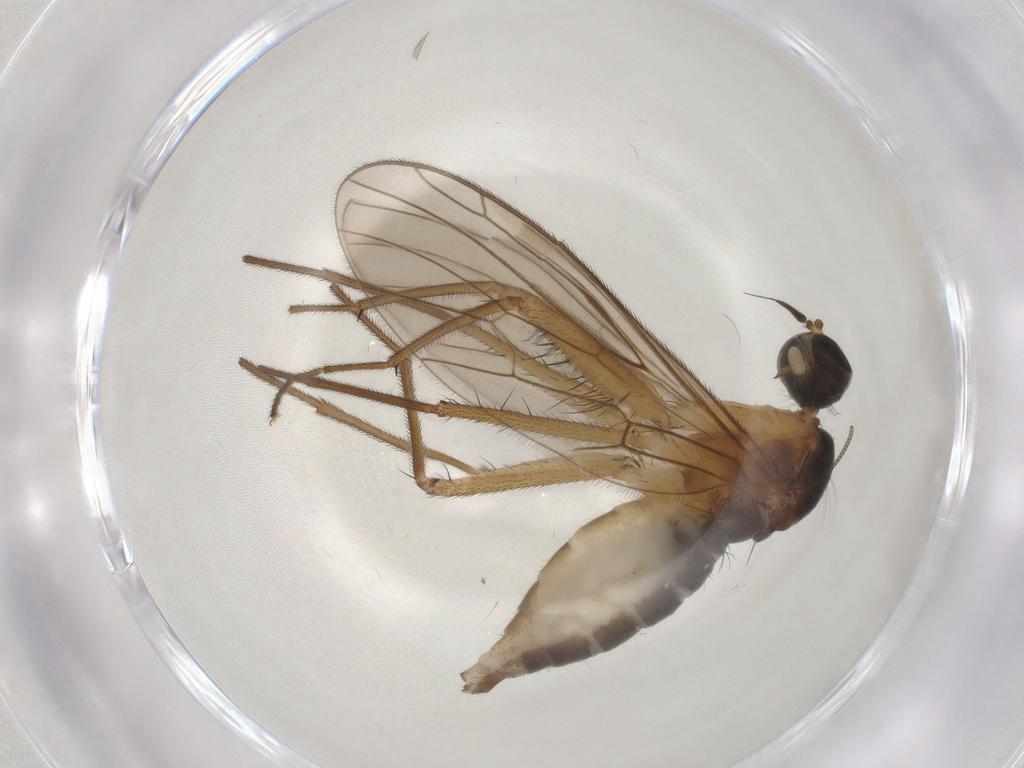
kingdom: Animalia
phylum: Arthropoda
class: Insecta
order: Diptera
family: Chironomidae
